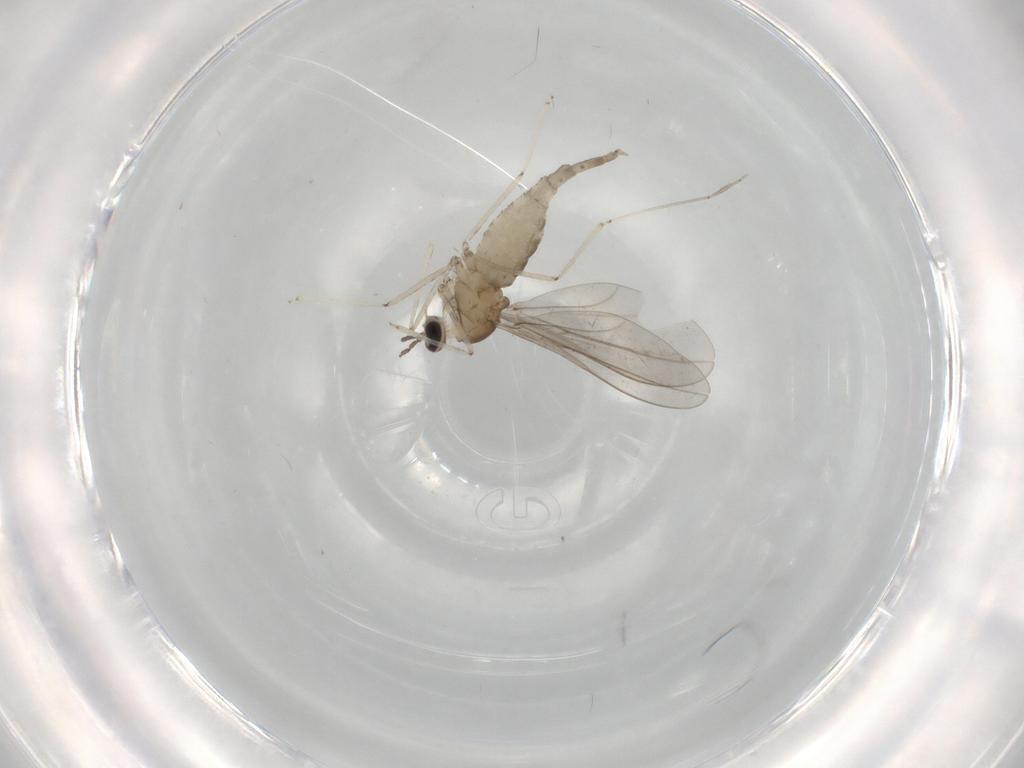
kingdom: Animalia
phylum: Arthropoda
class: Insecta
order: Diptera
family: Cecidomyiidae
